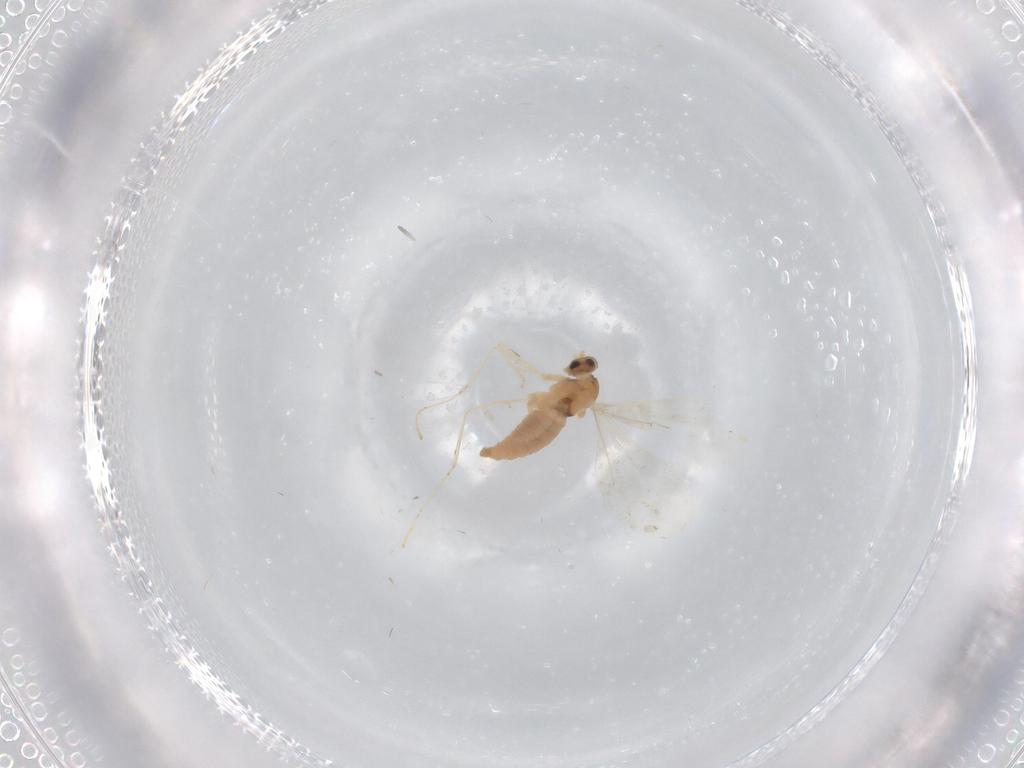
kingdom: Animalia
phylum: Arthropoda
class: Insecta
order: Diptera
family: Cecidomyiidae
